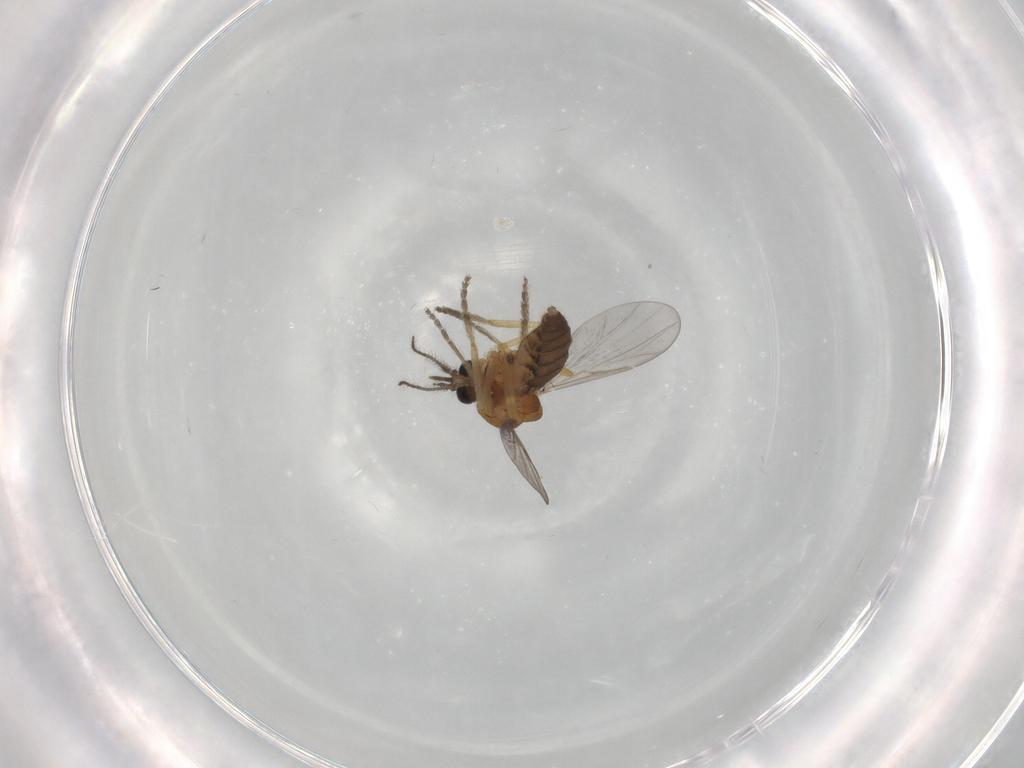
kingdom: Animalia
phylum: Arthropoda
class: Insecta
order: Diptera
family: Ceratopogonidae
